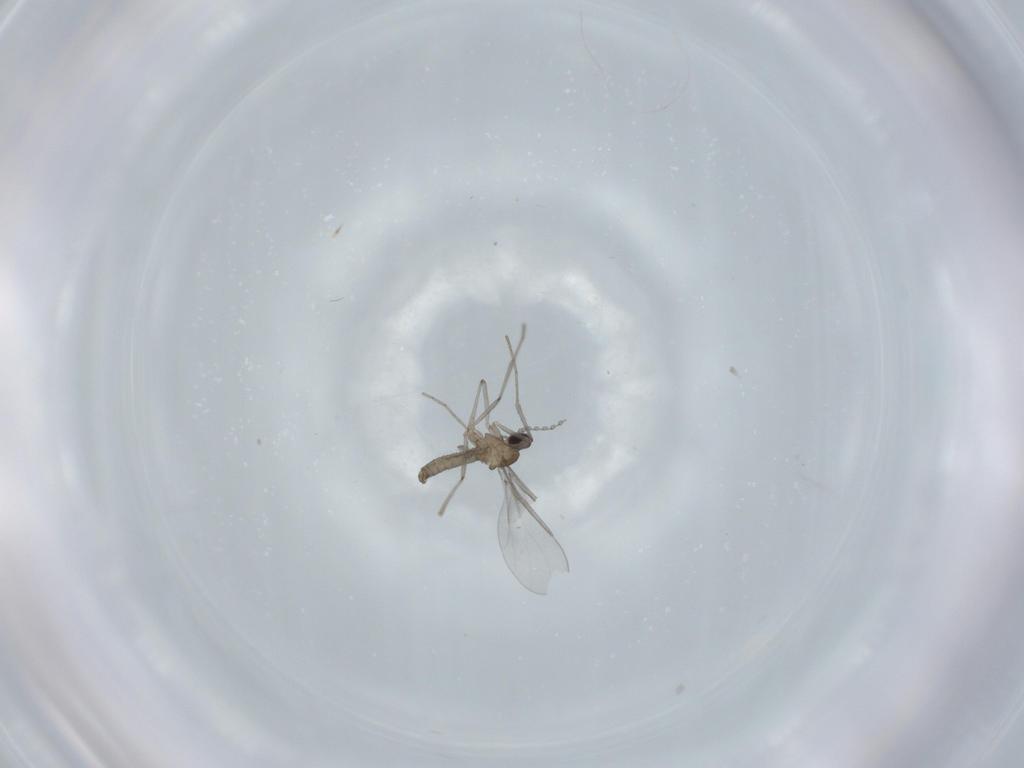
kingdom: Animalia
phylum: Arthropoda
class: Insecta
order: Diptera
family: Cecidomyiidae
